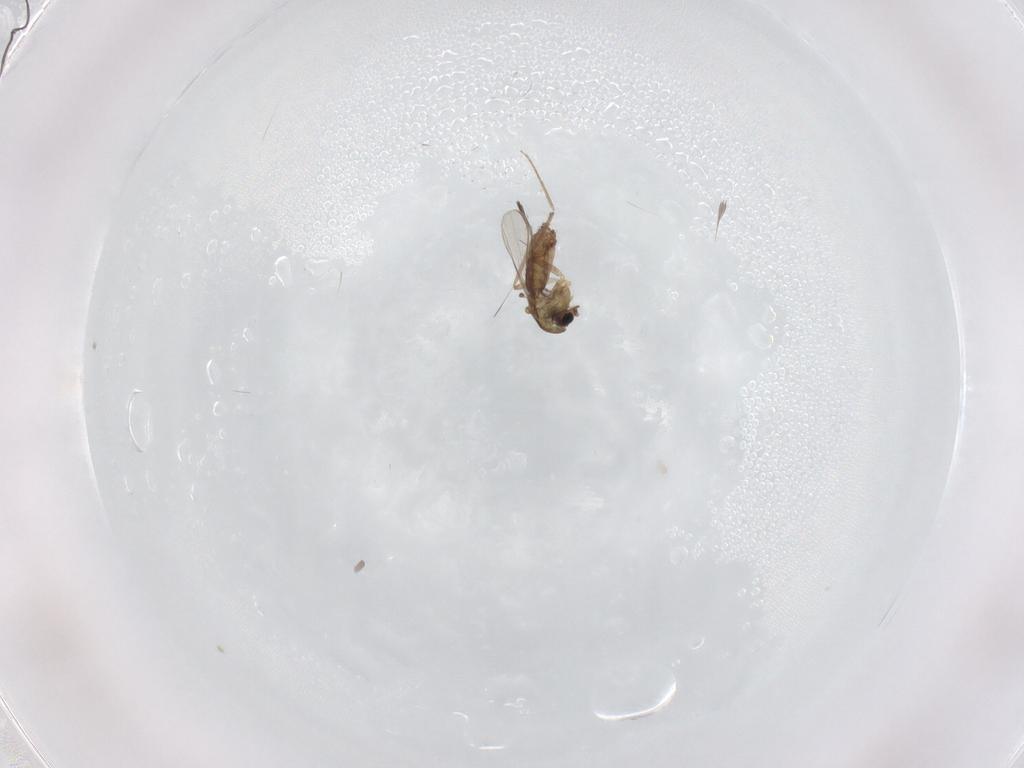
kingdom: Animalia
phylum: Arthropoda
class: Insecta
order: Diptera
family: Chironomidae
